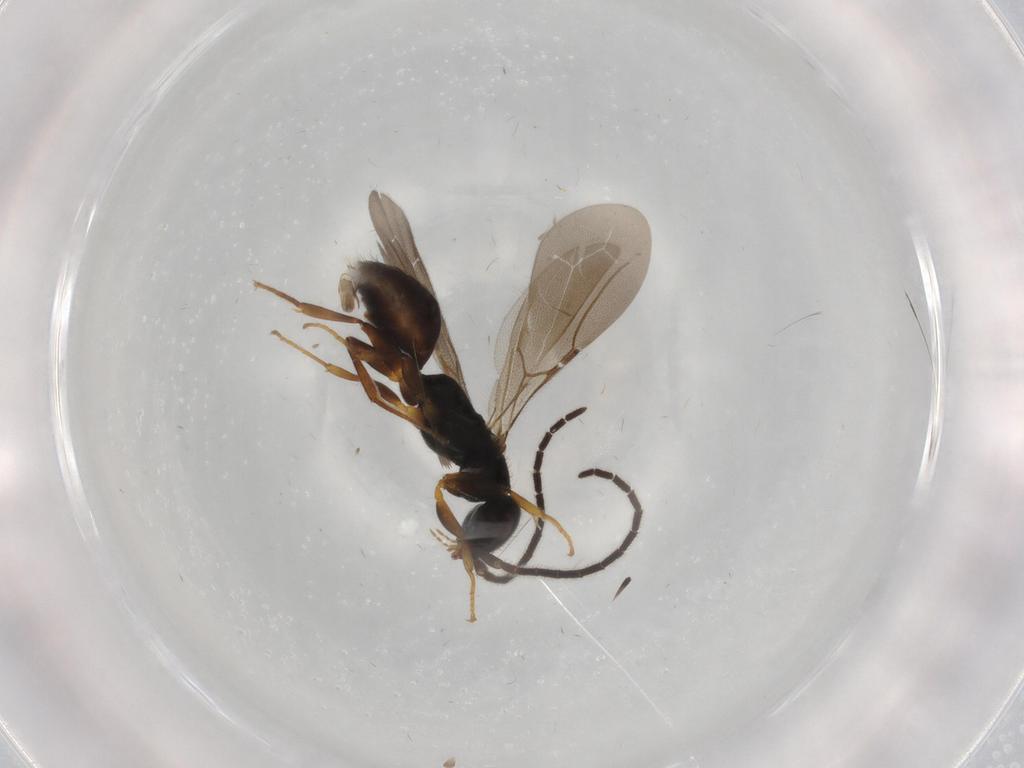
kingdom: Animalia
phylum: Arthropoda
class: Insecta
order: Hymenoptera
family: Bethylidae
